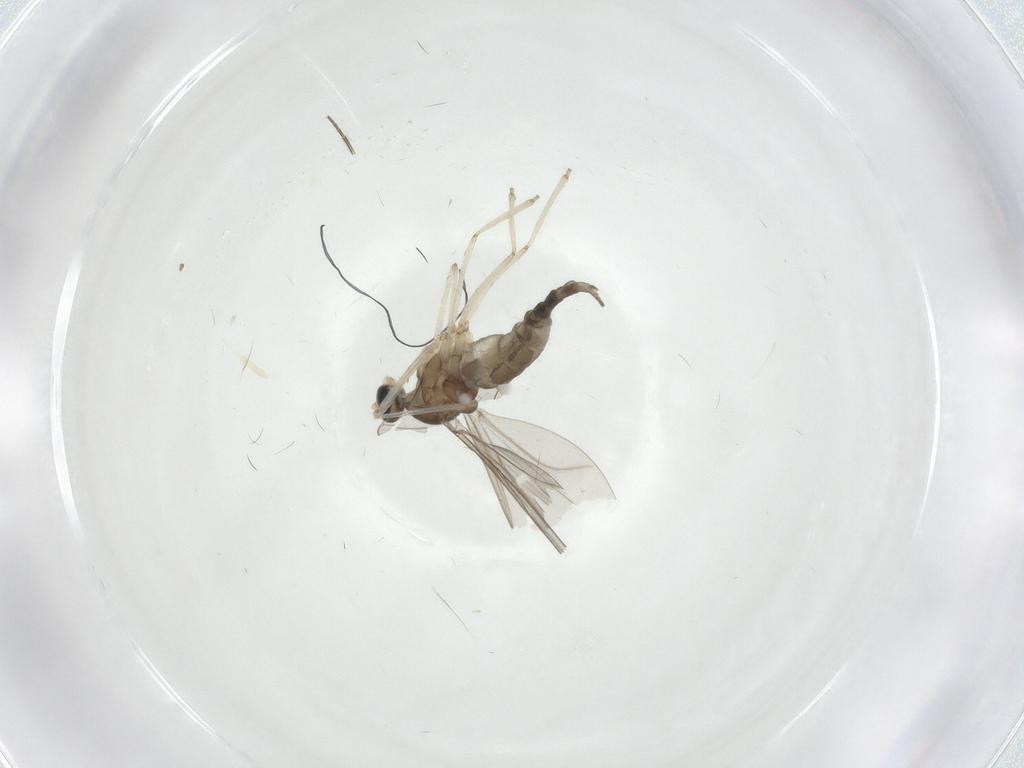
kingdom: Animalia
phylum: Arthropoda
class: Insecta
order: Diptera
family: Cecidomyiidae
